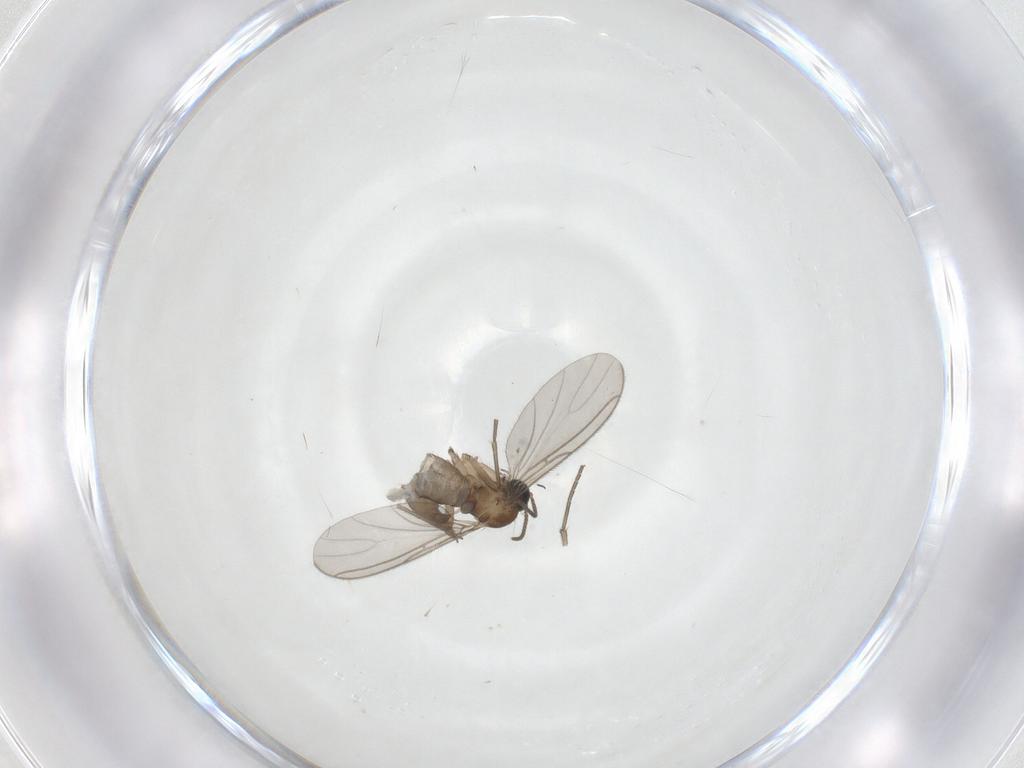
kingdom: Animalia
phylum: Arthropoda
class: Insecta
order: Diptera
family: Sciaridae
